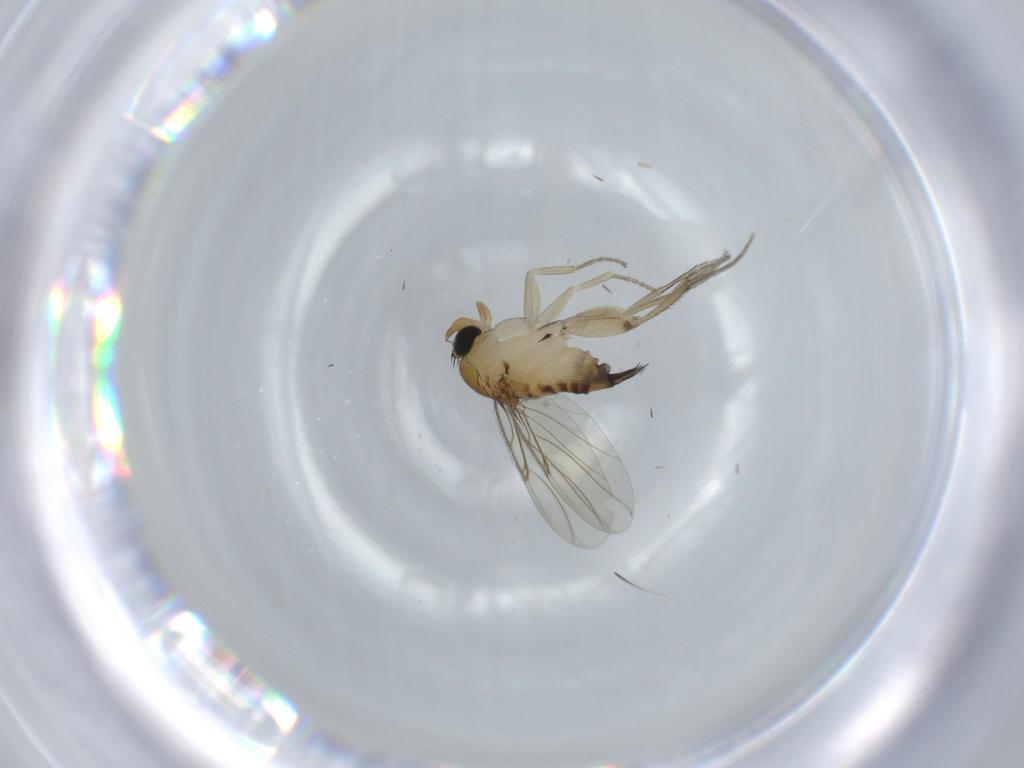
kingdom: Animalia
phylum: Arthropoda
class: Insecta
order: Diptera
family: Phoridae
